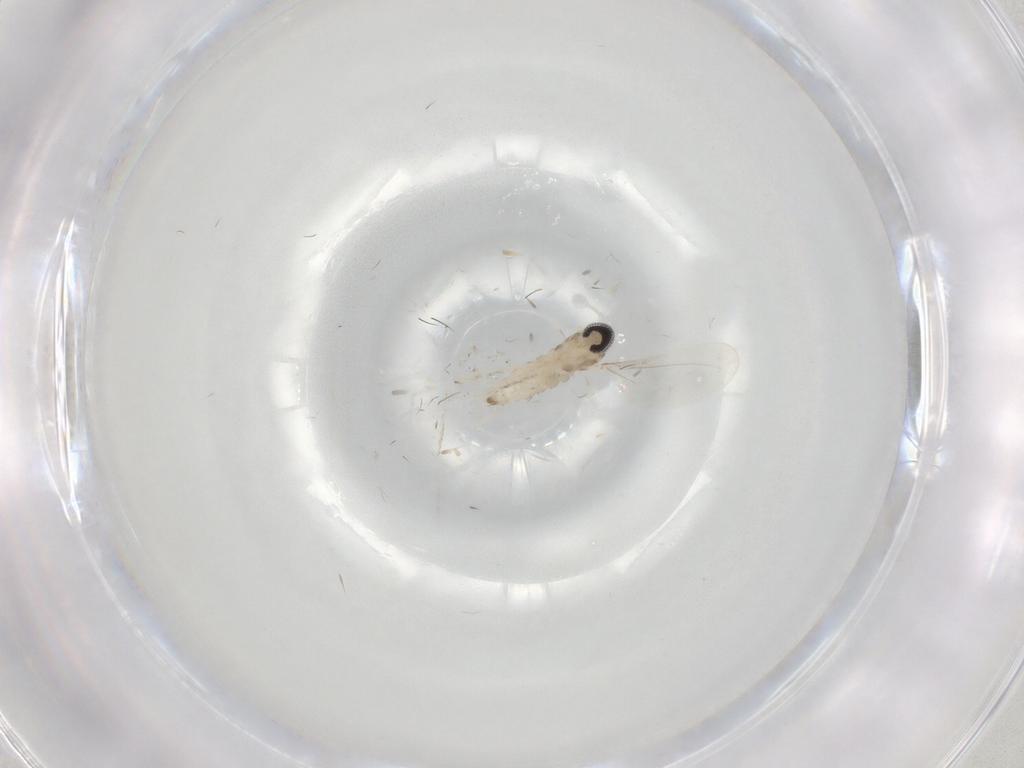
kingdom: Animalia
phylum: Arthropoda
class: Insecta
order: Diptera
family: Cecidomyiidae
